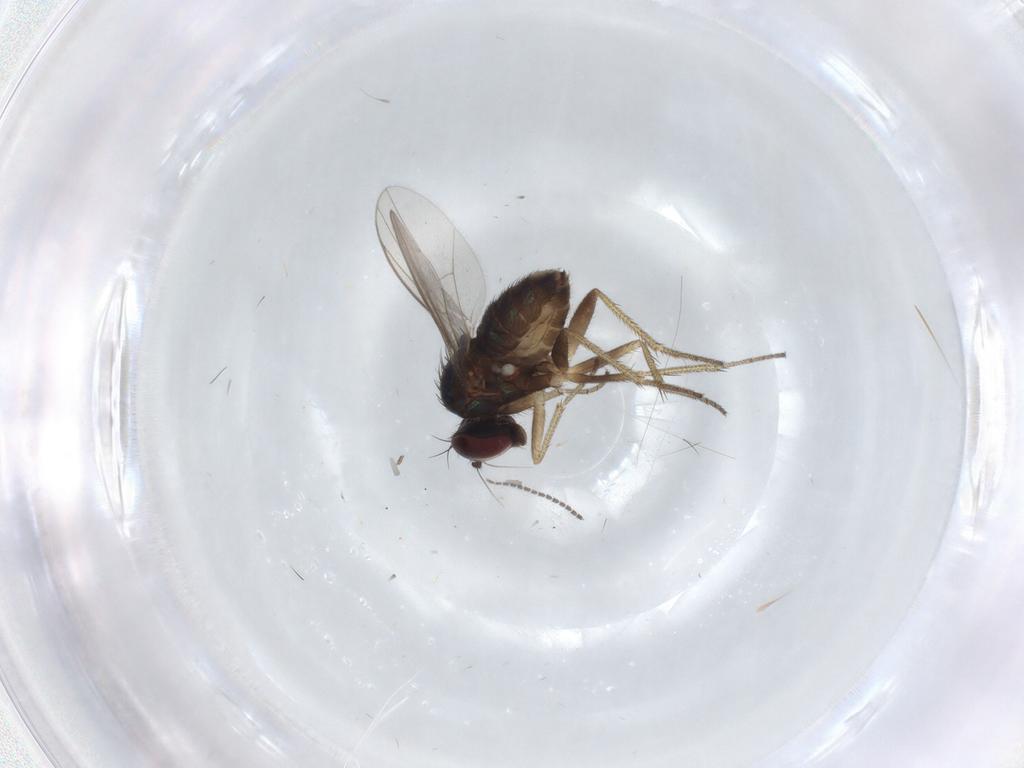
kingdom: Animalia
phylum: Arthropoda
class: Insecta
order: Diptera
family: Sciaridae
